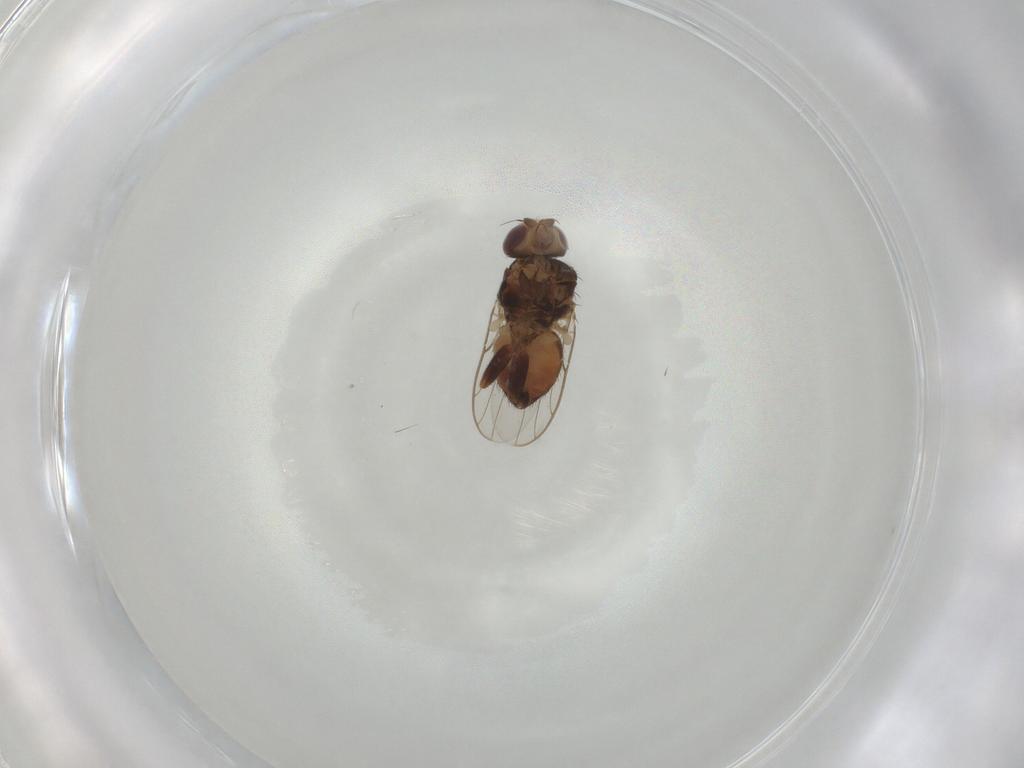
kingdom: Animalia
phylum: Arthropoda
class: Insecta
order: Diptera
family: Chloropidae
